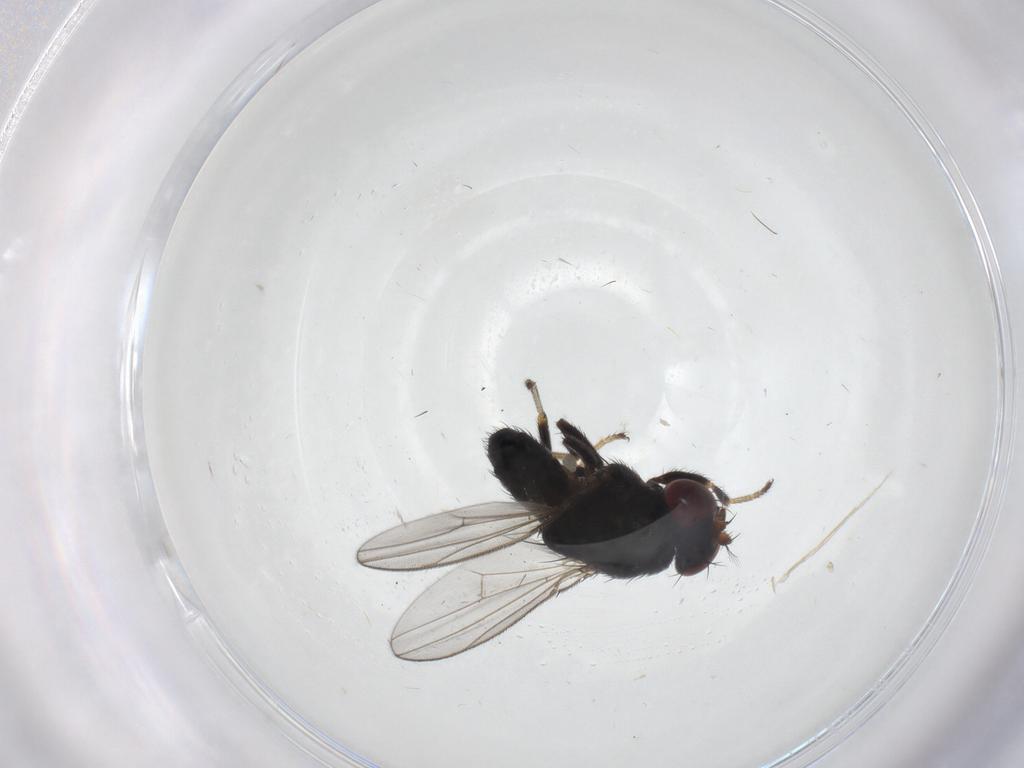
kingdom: Animalia
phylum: Arthropoda
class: Insecta
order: Diptera
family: Ephydridae
